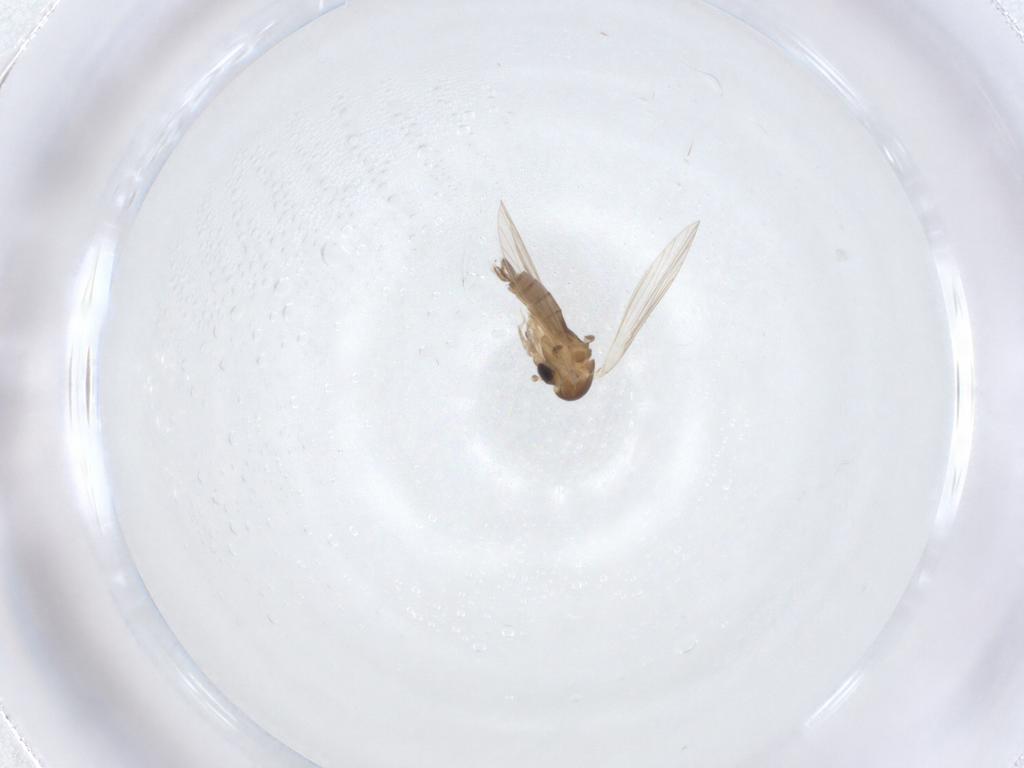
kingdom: Animalia
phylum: Arthropoda
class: Insecta
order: Diptera
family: Psychodidae
